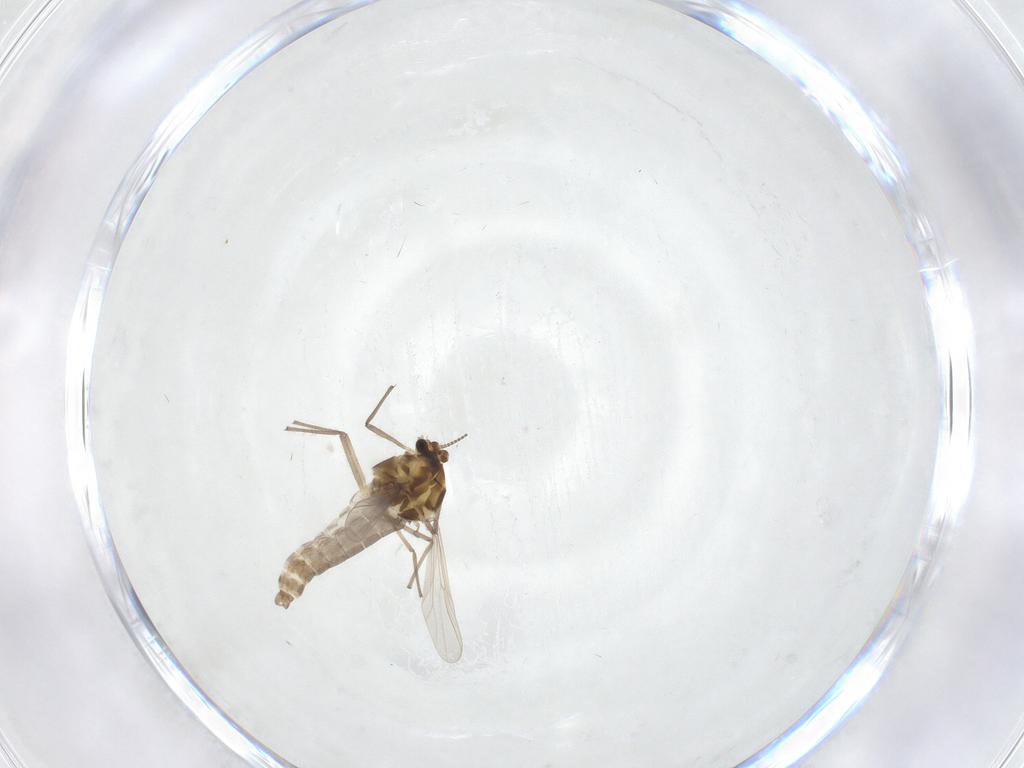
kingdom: Animalia
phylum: Arthropoda
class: Insecta
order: Diptera
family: Chironomidae
